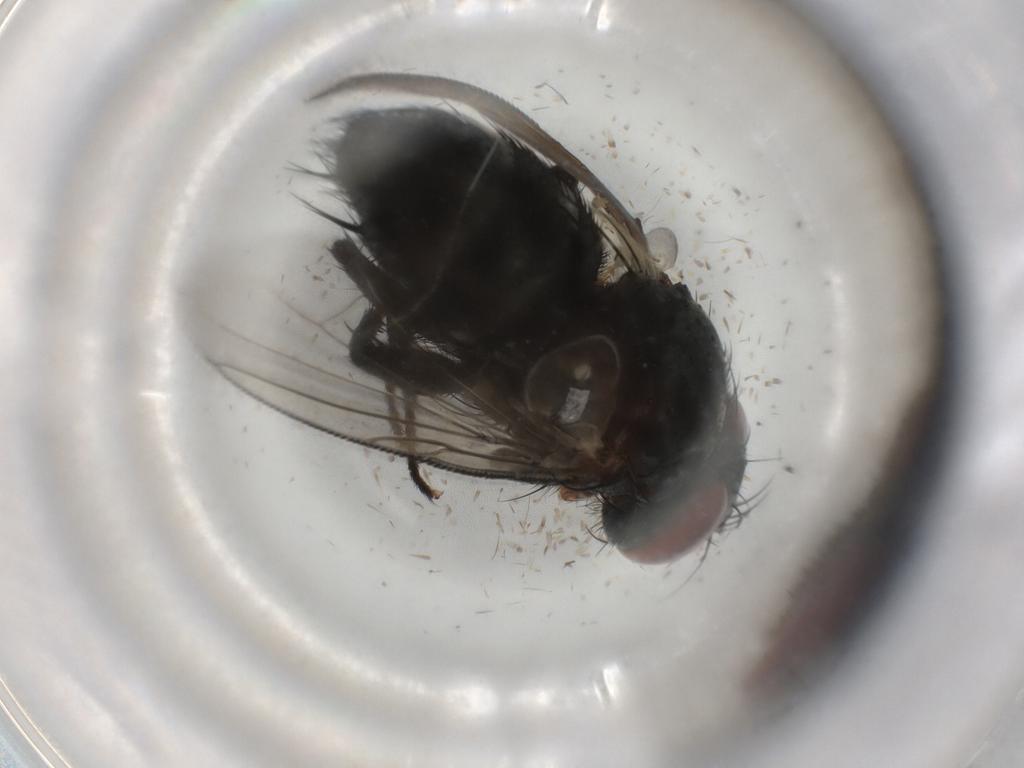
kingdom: Animalia
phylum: Arthropoda
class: Insecta
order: Diptera
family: Tachinidae
